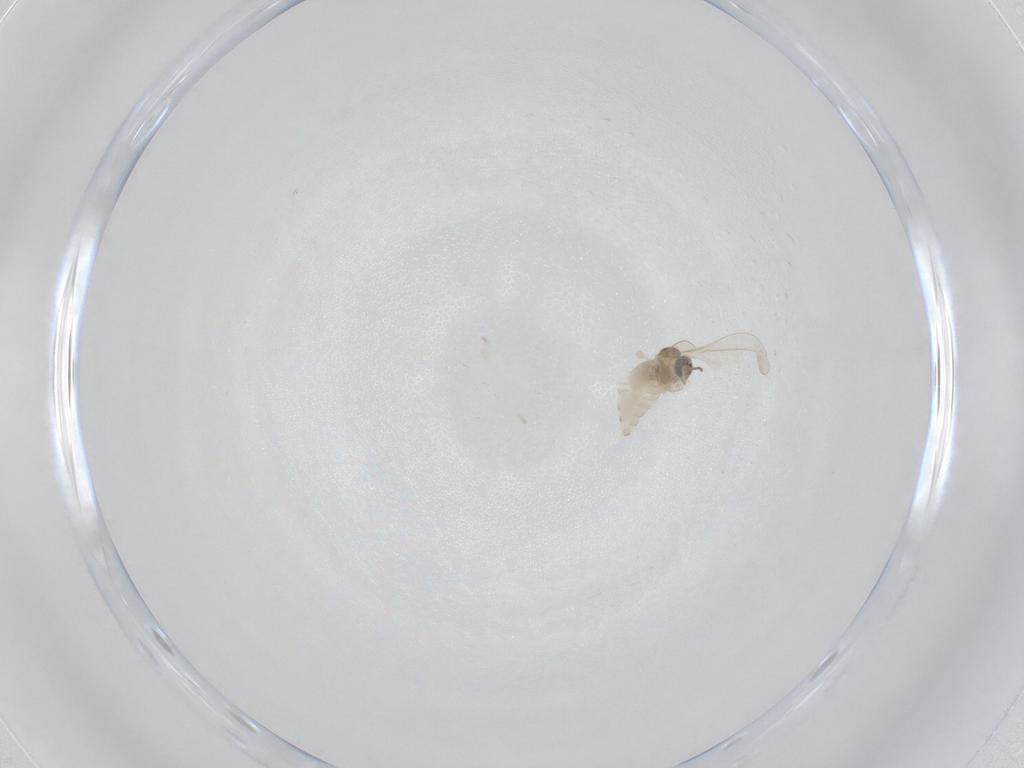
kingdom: Animalia
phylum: Arthropoda
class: Insecta
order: Diptera
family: Cecidomyiidae
